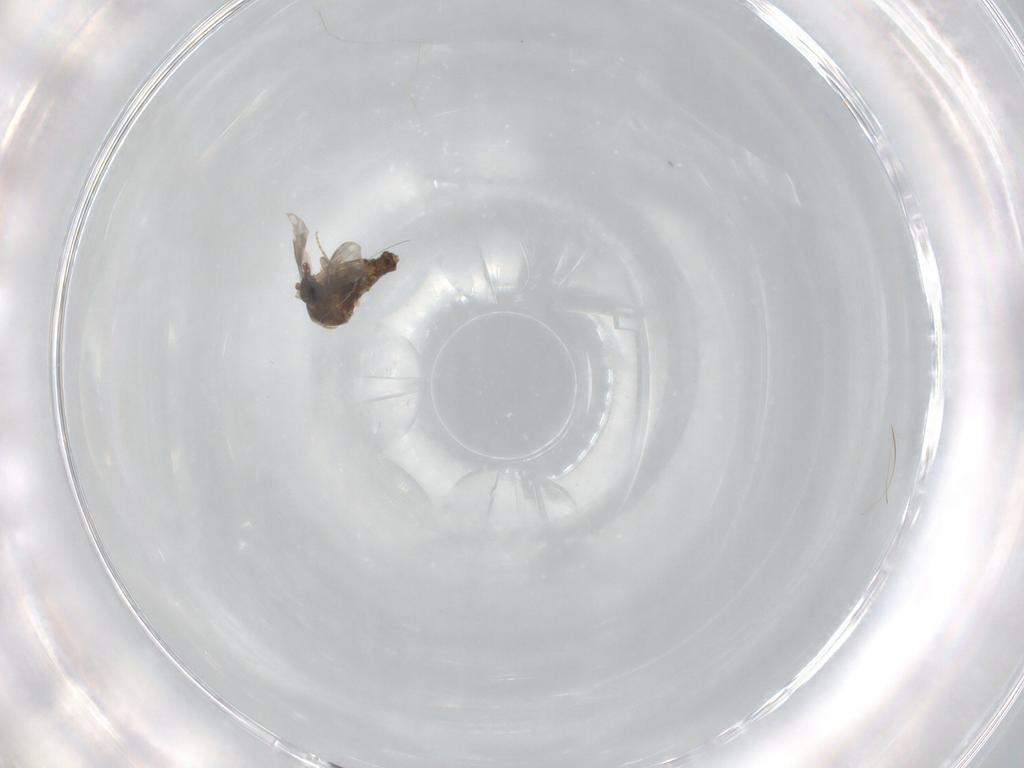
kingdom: Animalia
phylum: Arthropoda
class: Insecta
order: Diptera
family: Ceratopogonidae
